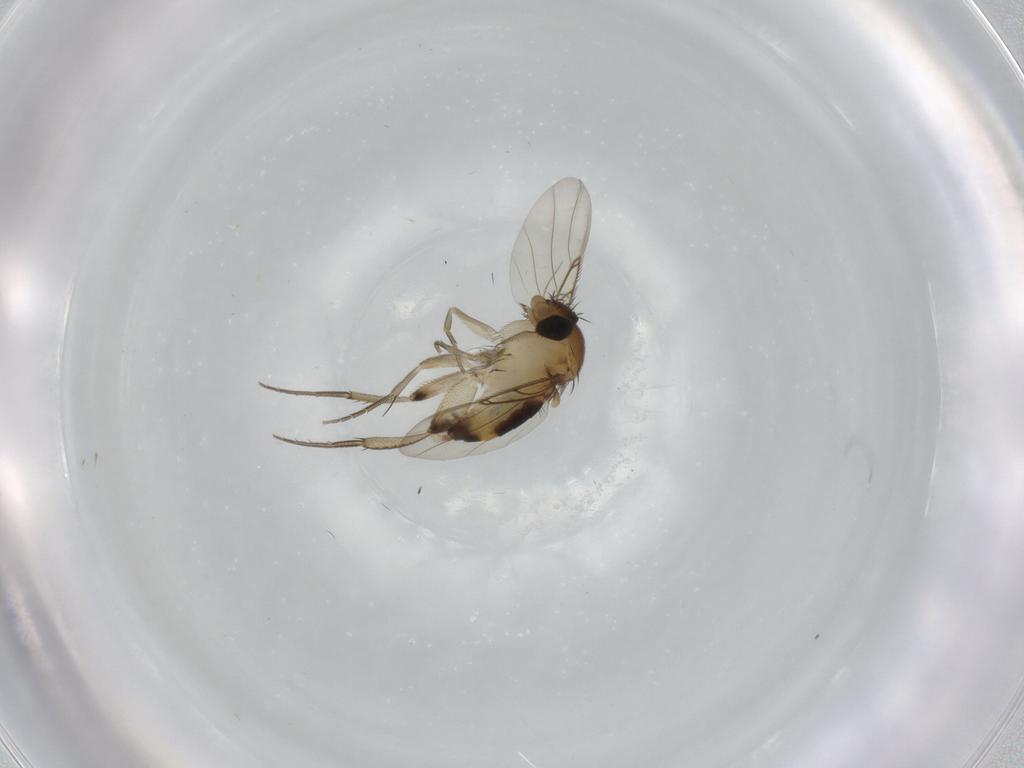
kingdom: Animalia
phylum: Arthropoda
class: Insecta
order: Diptera
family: Phoridae
